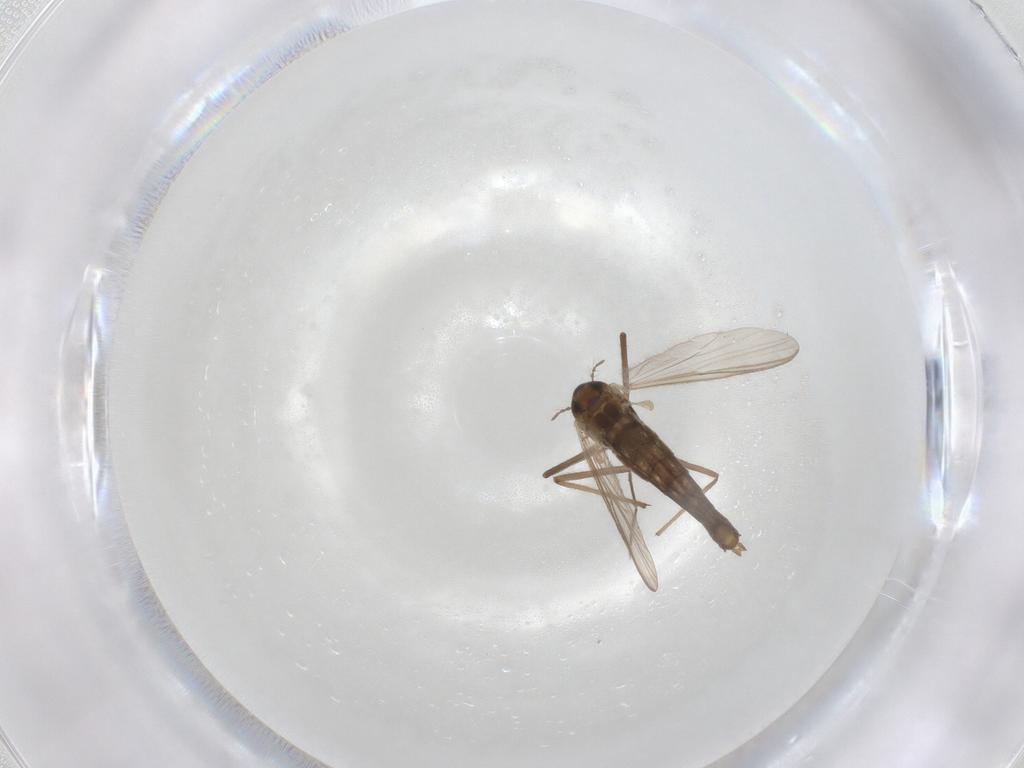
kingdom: Animalia
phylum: Arthropoda
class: Insecta
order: Diptera
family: Chironomidae
